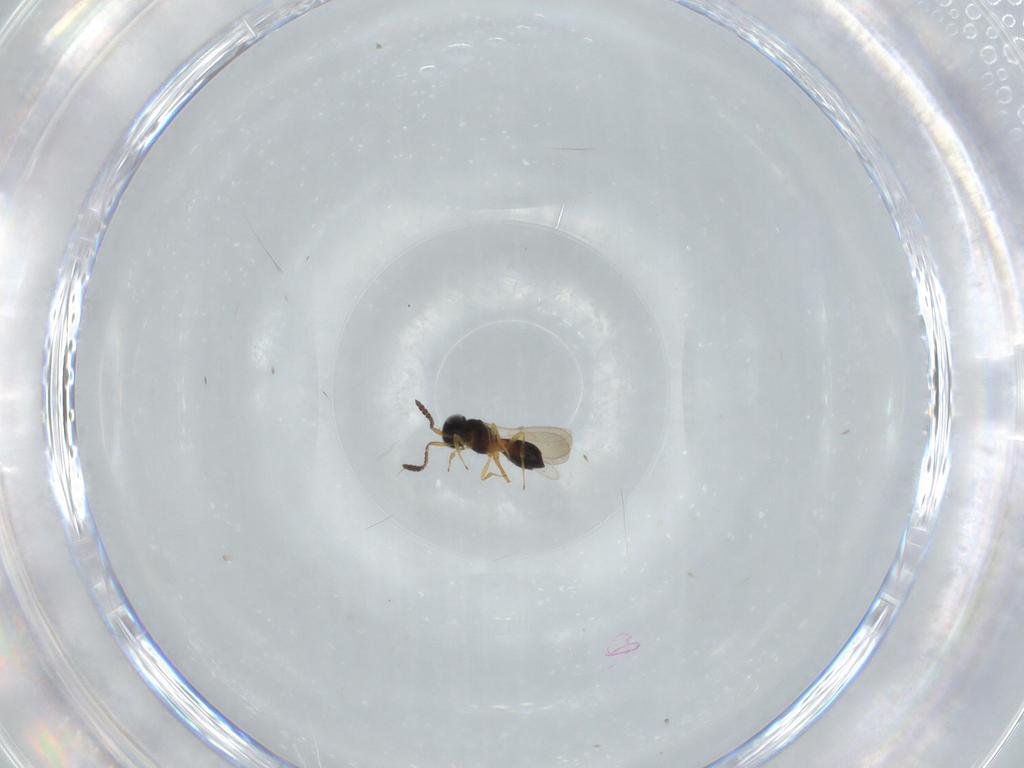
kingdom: Animalia
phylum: Arthropoda
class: Insecta
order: Hymenoptera
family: Scelionidae
